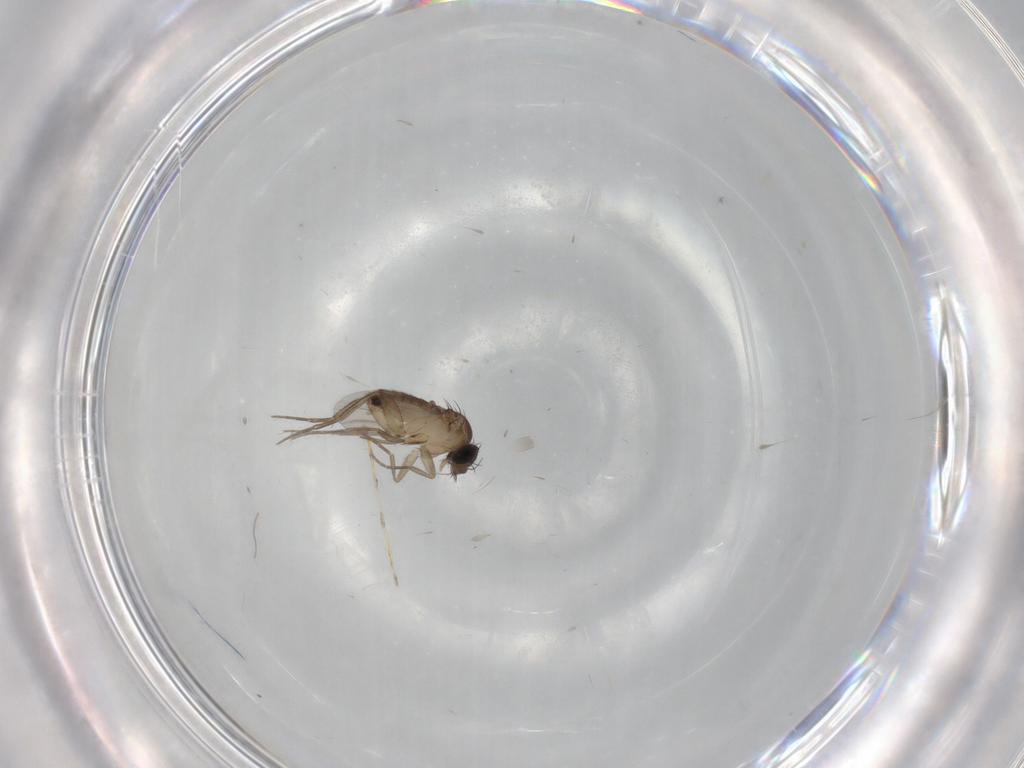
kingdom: Animalia
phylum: Arthropoda
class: Insecta
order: Diptera
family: Phoridae
